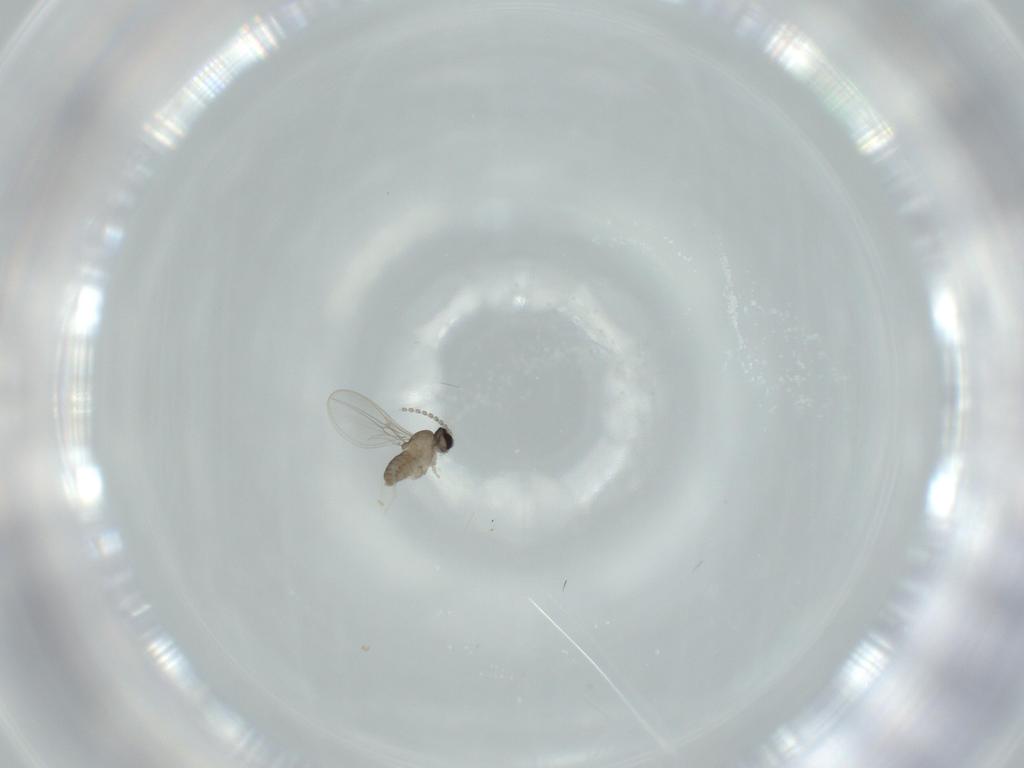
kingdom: Animalia
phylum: Arthropoda
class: Insecta
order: Diptera
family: Cecidomyiidae
